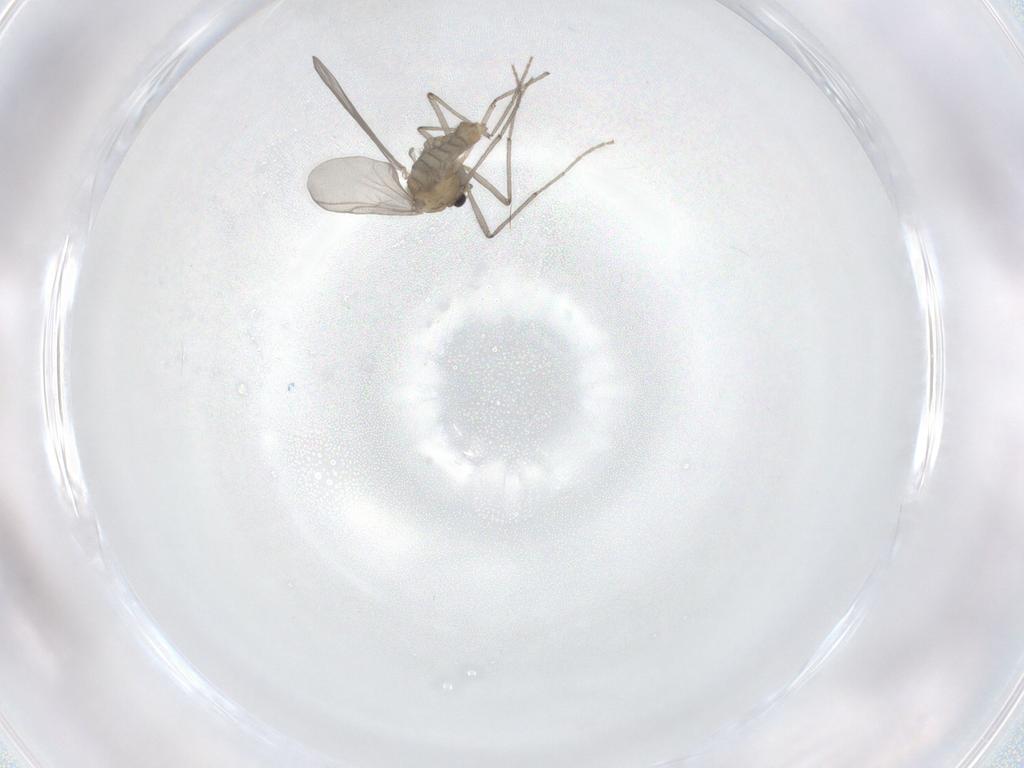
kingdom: Animalia
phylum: Arthropoda
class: Insecta
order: Diptera
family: Chironomidae
